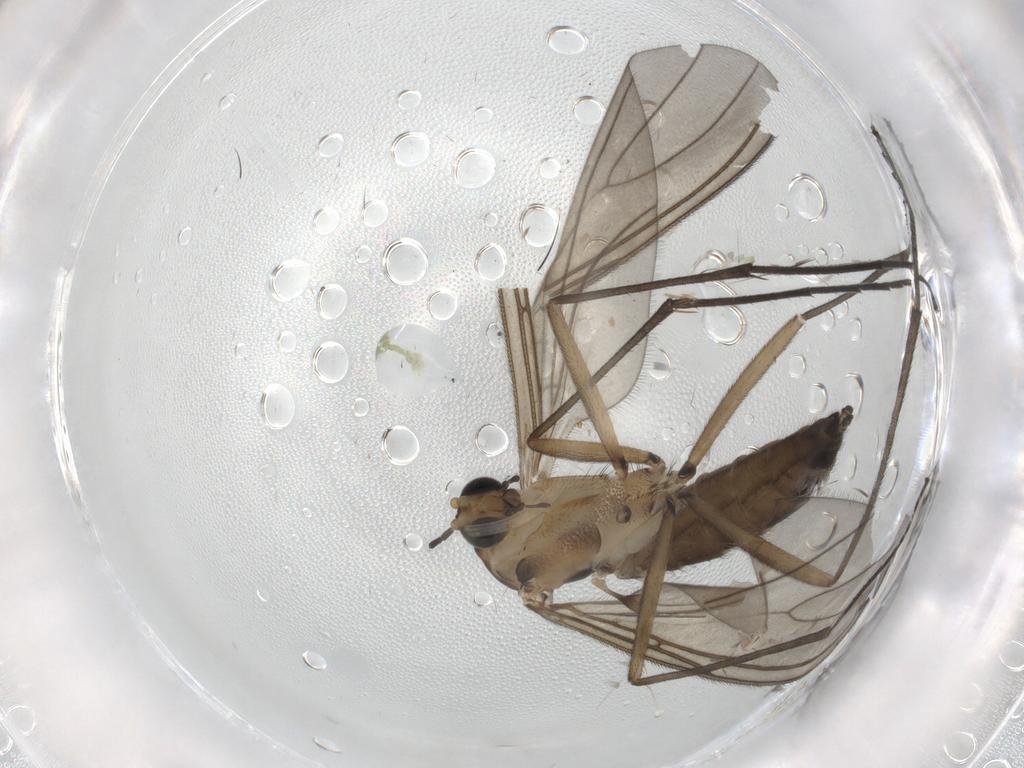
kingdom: Animalia
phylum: Arthropoda
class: Insecta
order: Diptera
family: Sciaridae
